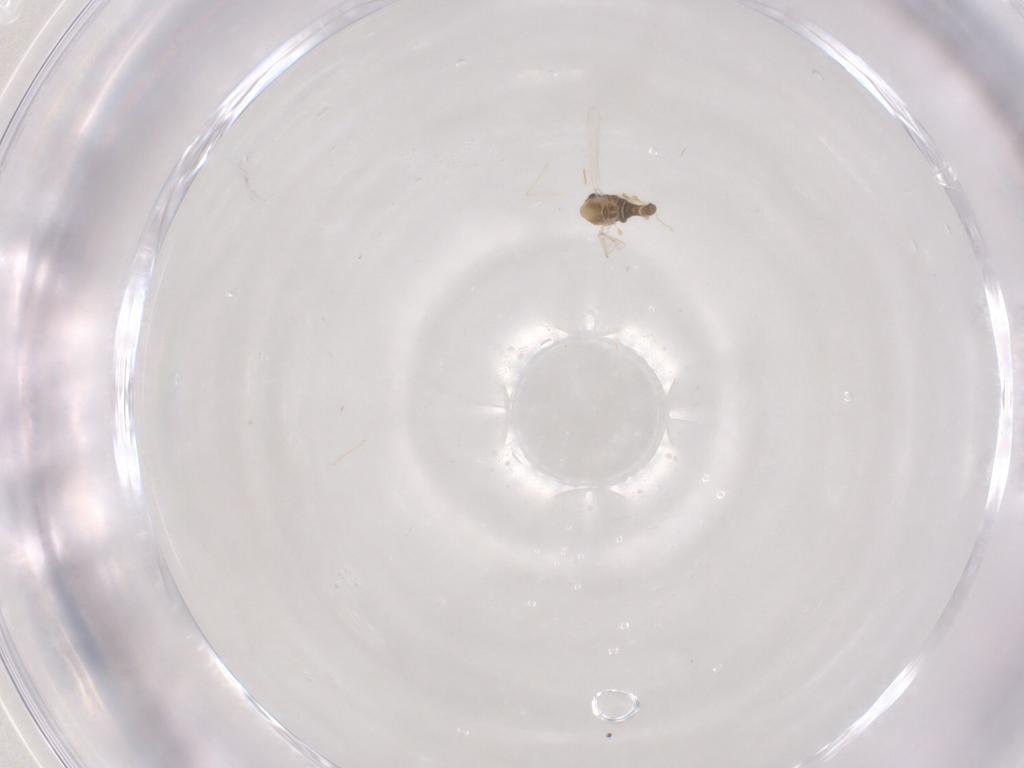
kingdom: Animalia
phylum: Arthropoda
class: Insecta
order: Diptera
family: Chironomidae
